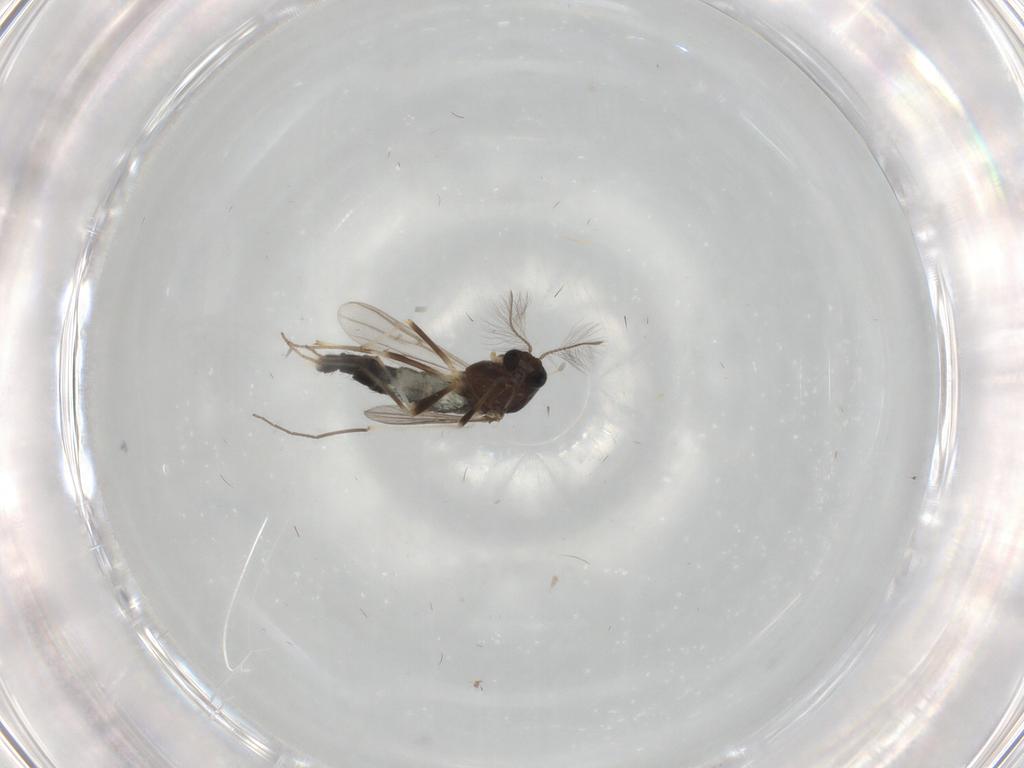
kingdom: Animalia
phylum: Arthropoda
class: Insecta
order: Diptera
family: Chironomidae
